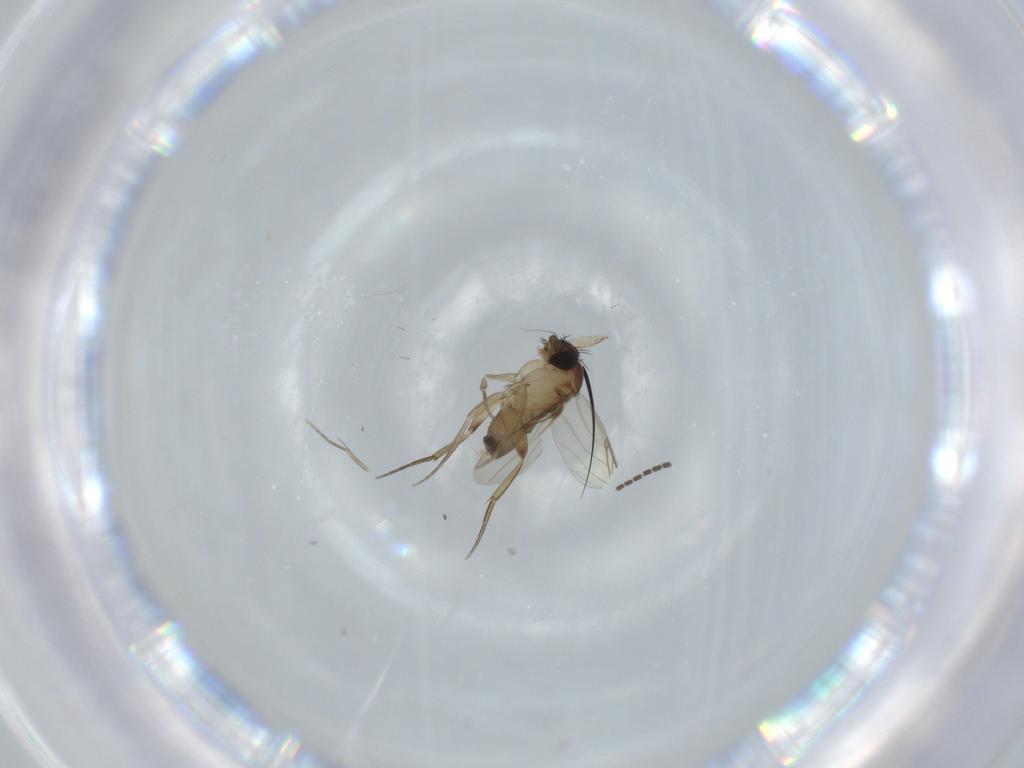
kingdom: Animalia
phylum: Arthropoda
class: Insecta
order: Diptera
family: Phoridae
